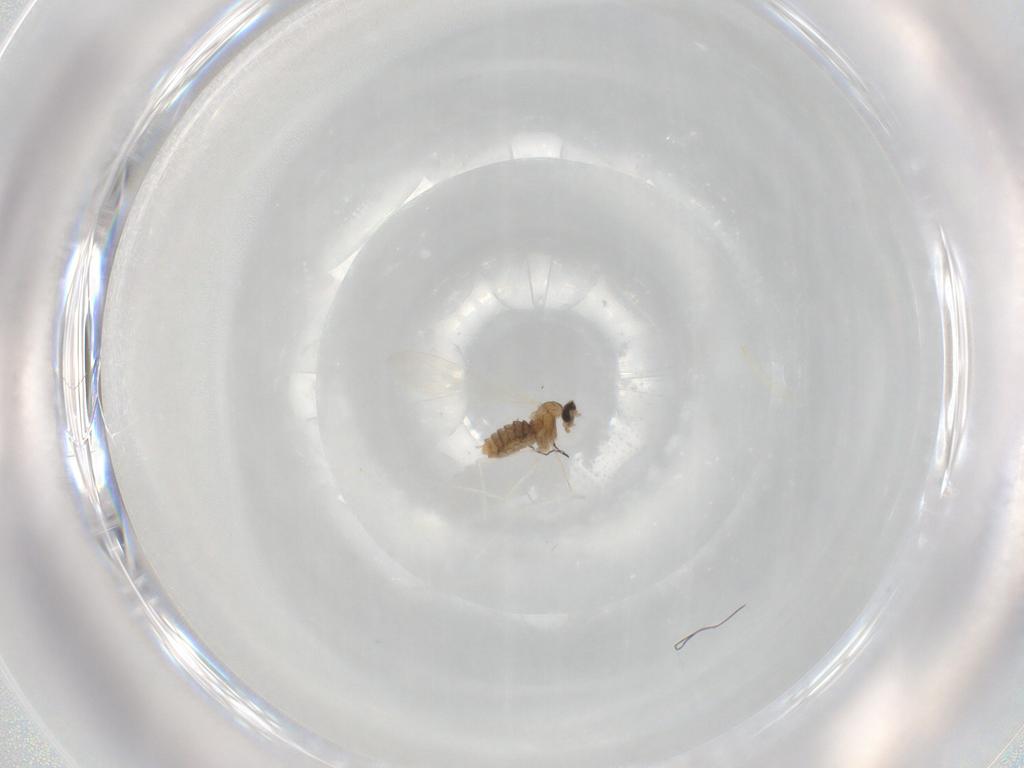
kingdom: Animalia
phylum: Arthropoda
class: Insecta
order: Diptera
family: Cecidomyiidae
